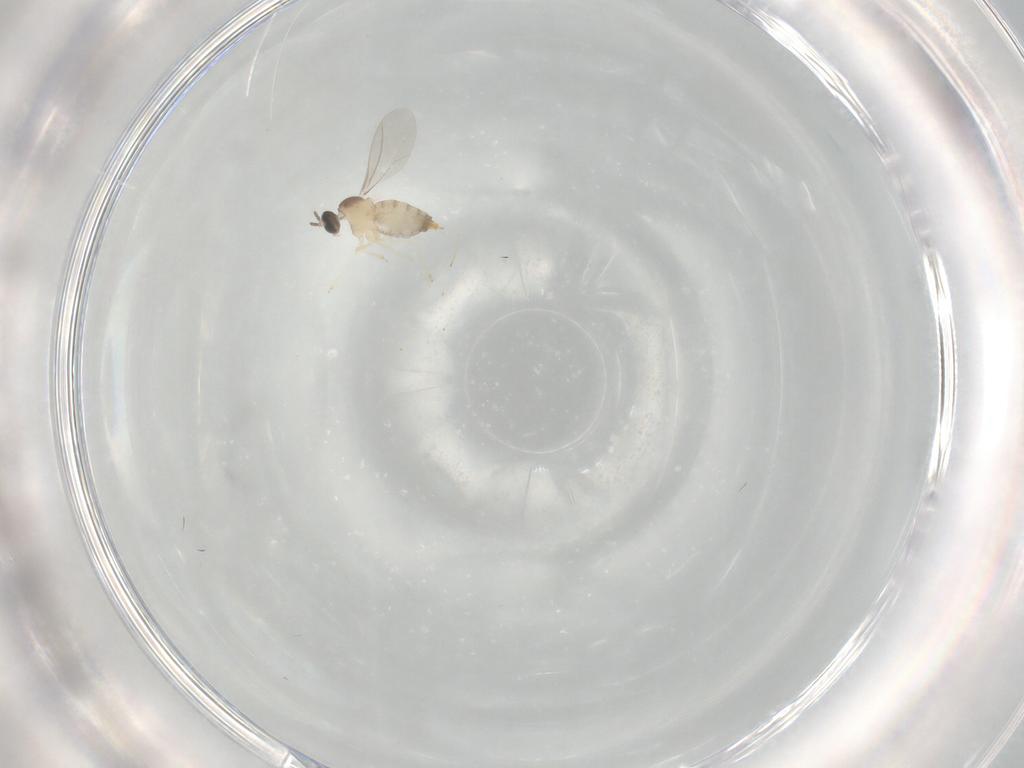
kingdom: Animalia
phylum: Arthropoda
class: Insecta
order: Diptera
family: Cecidomyiidae
